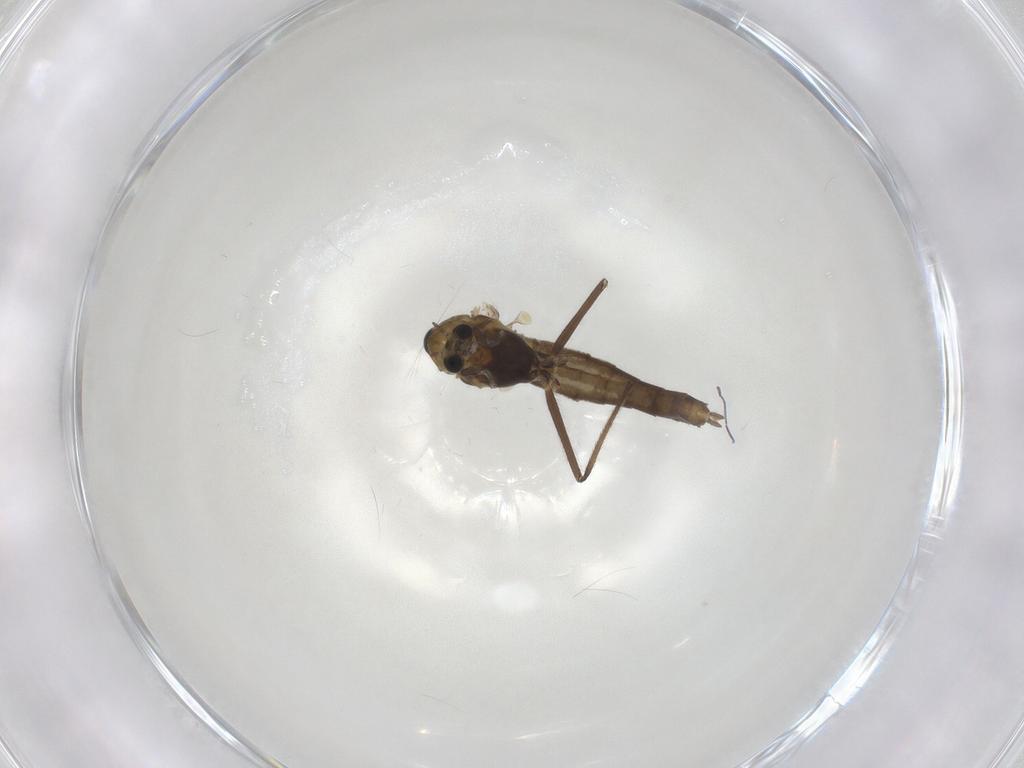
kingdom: Animalia
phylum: Arthropoda
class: Insecta
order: Diptera
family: Chironomidae
